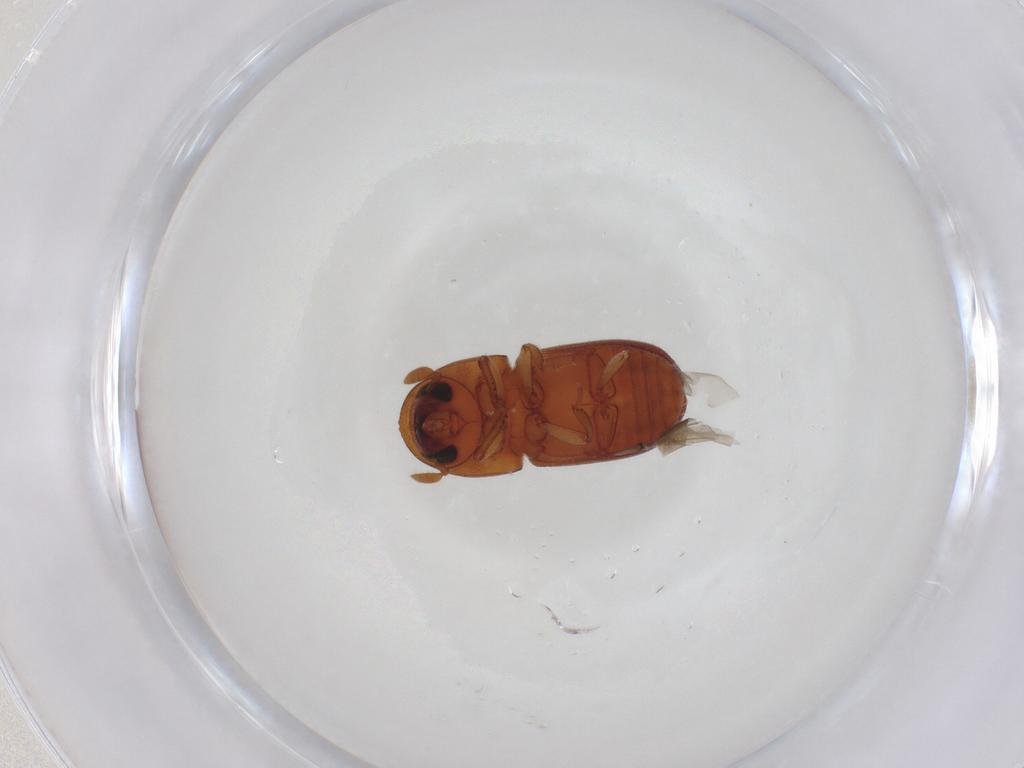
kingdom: Animalia
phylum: Arthropoda
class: Insecta
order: Coleoptera
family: Curculionidae
